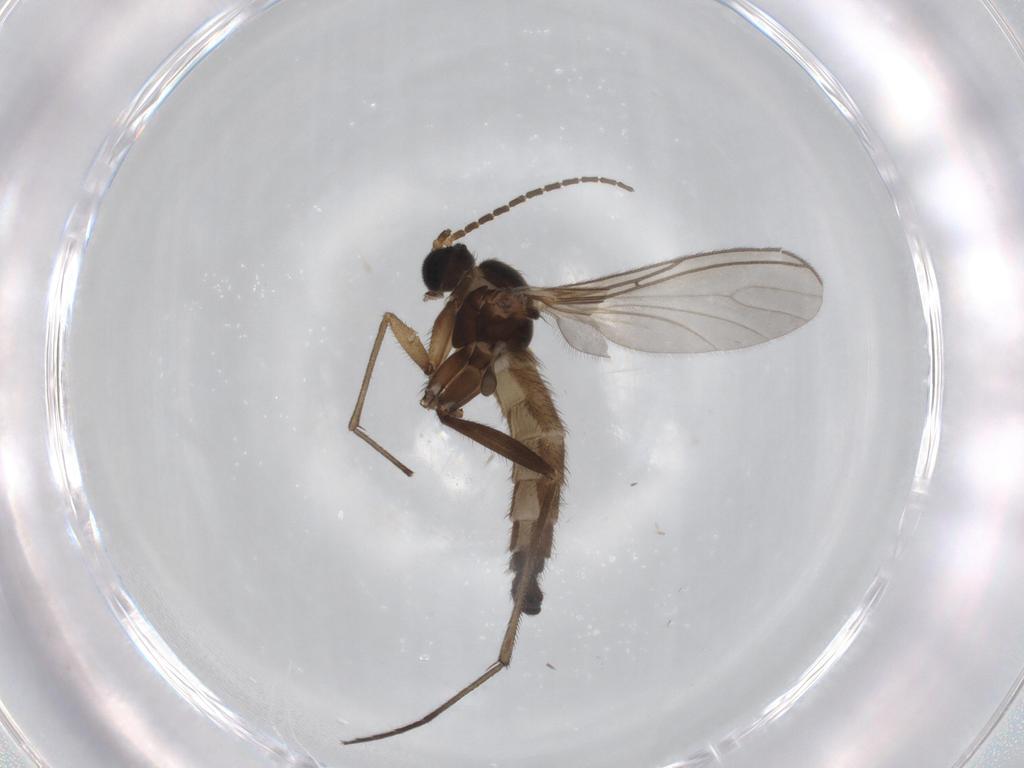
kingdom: Animalia
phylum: Arthropoda
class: Insecta
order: Diptera
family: Sciaridae
